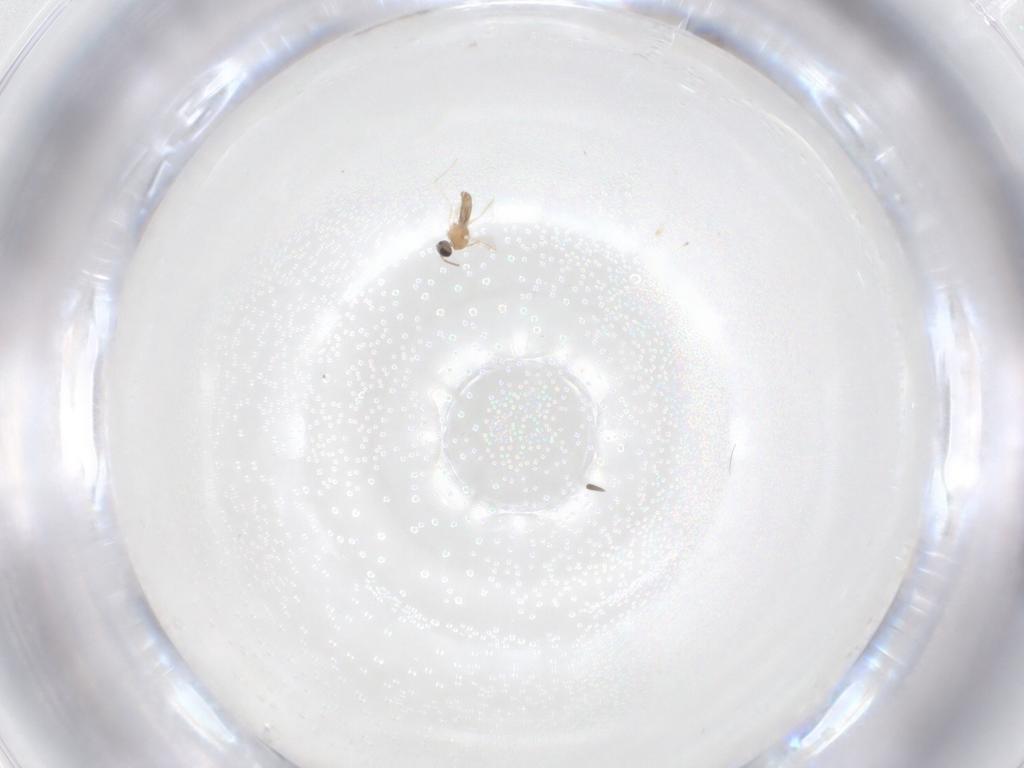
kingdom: Animalia
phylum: Arthropoda
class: Insecta
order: Diptera
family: Cecidomyiidae
